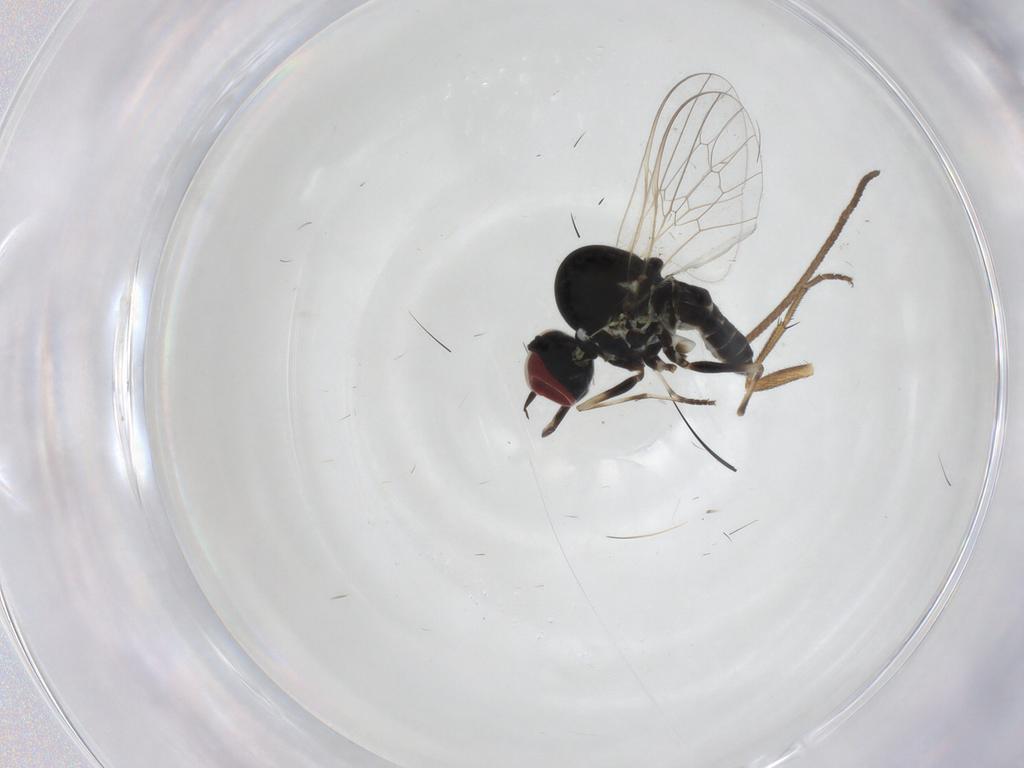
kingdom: Animalia
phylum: Arthropoda
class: Insecta
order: Diptera
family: Bombyliidae
